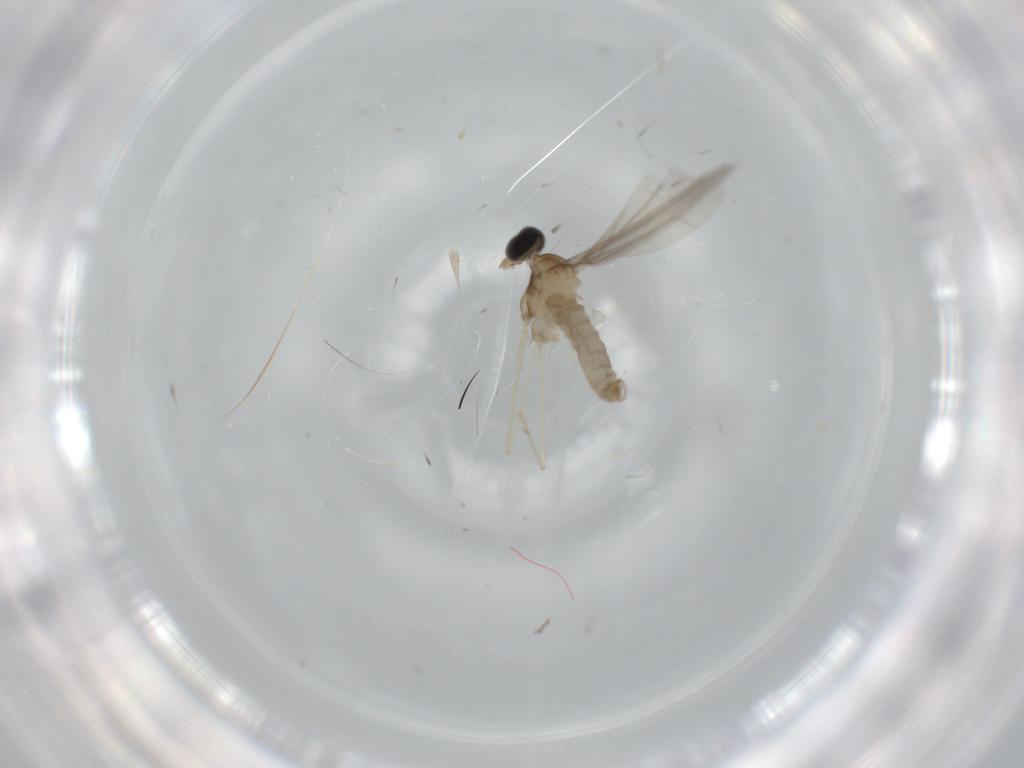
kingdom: Animalia
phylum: Arthropoda
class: Insecta
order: Diptera
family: Cecidomyiidae
